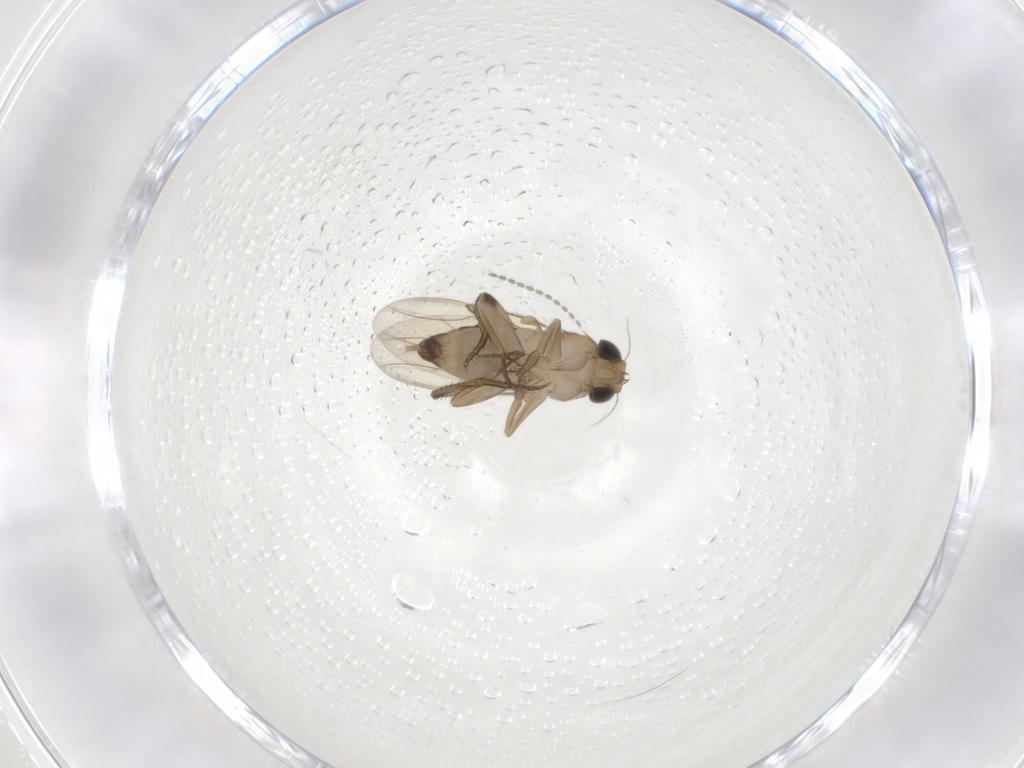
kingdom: Animalia
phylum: Arthropoda
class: Insecta
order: Diptera
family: Phoridae
